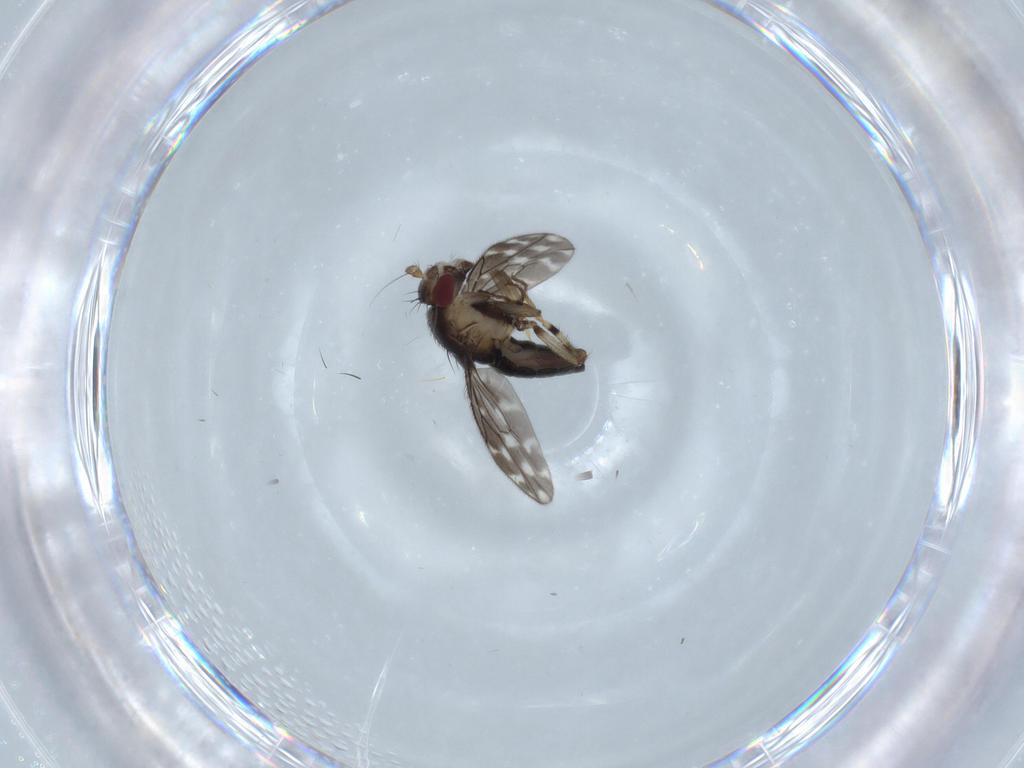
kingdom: Animalia
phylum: Arthropoda
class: Insecta
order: Diptera
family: Sphaeroceridae
